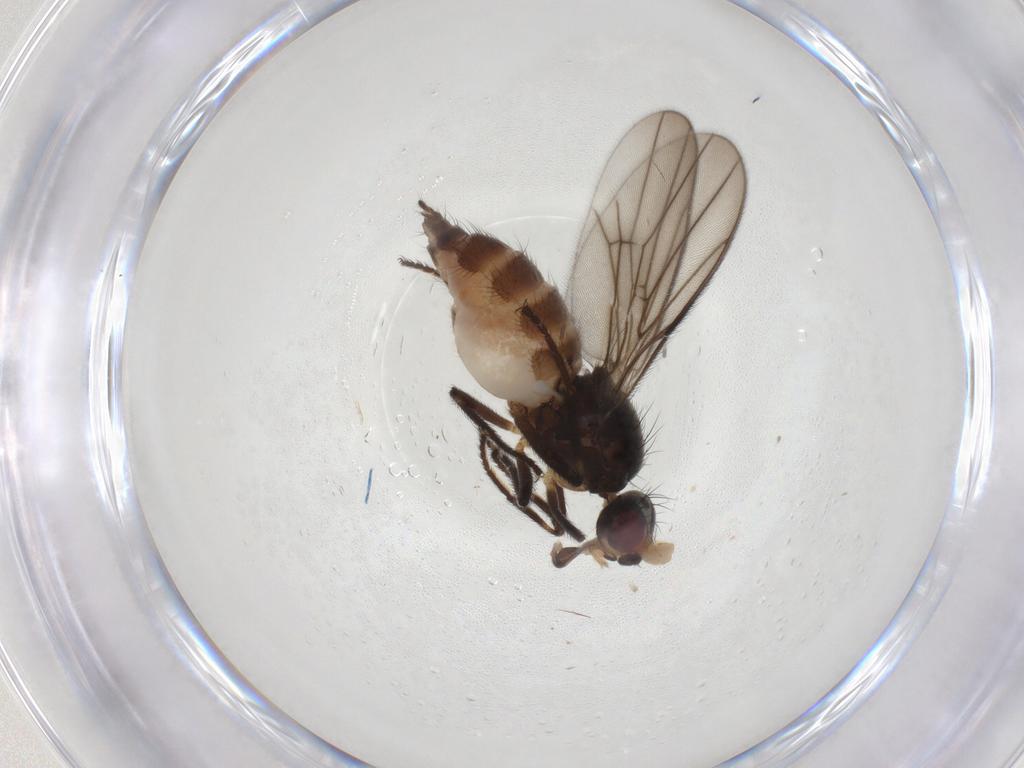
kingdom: Animalia
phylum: Arthropoda
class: Insecta
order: Diptera
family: Chloropidae
